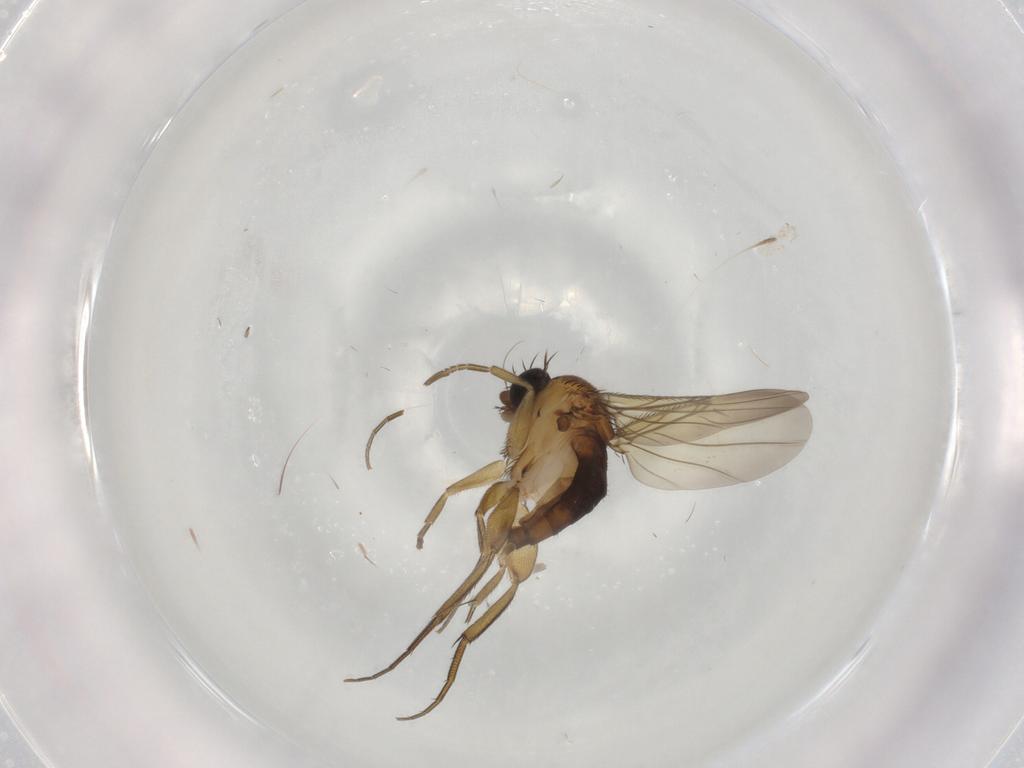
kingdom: Animalia
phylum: Arthropoda
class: Insecta
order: Diptera
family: Phoridae
